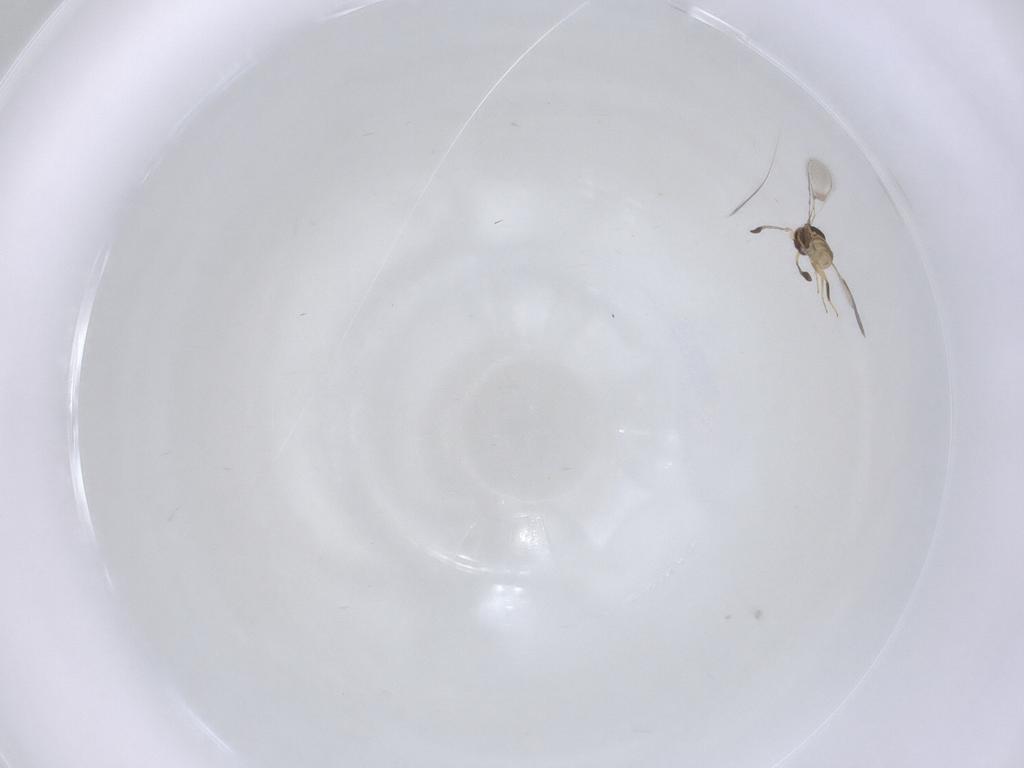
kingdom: Animalia
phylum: Arthropoda
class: Insecta
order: Hymenoptera
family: Mymaridae
